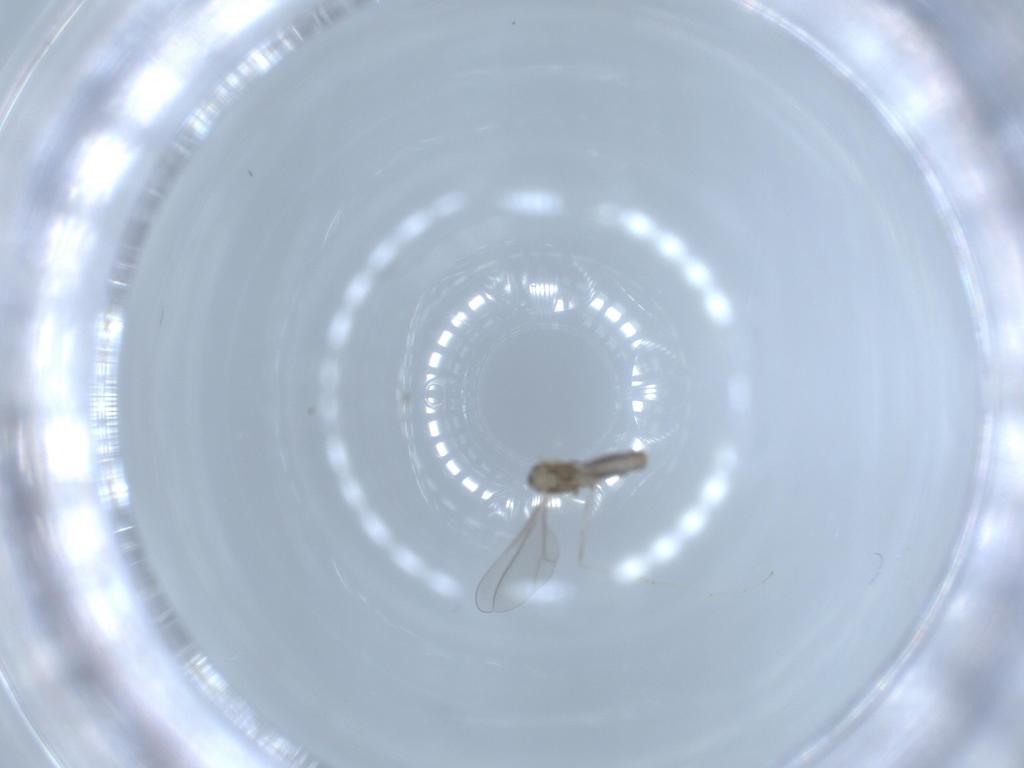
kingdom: Animalia
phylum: Arthropoda
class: Insecta
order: Diptera
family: Cecidomyiidae
